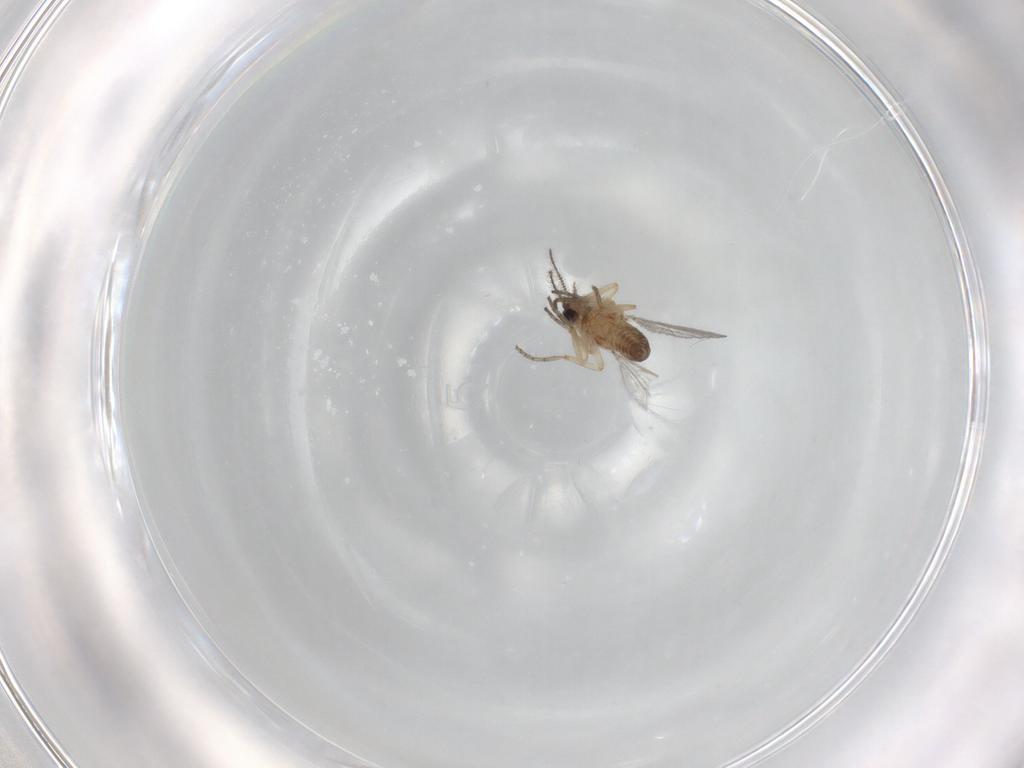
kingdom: Animalia
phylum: Arthropoda
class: Insecta
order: Diptera
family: Ceratopogonidae
